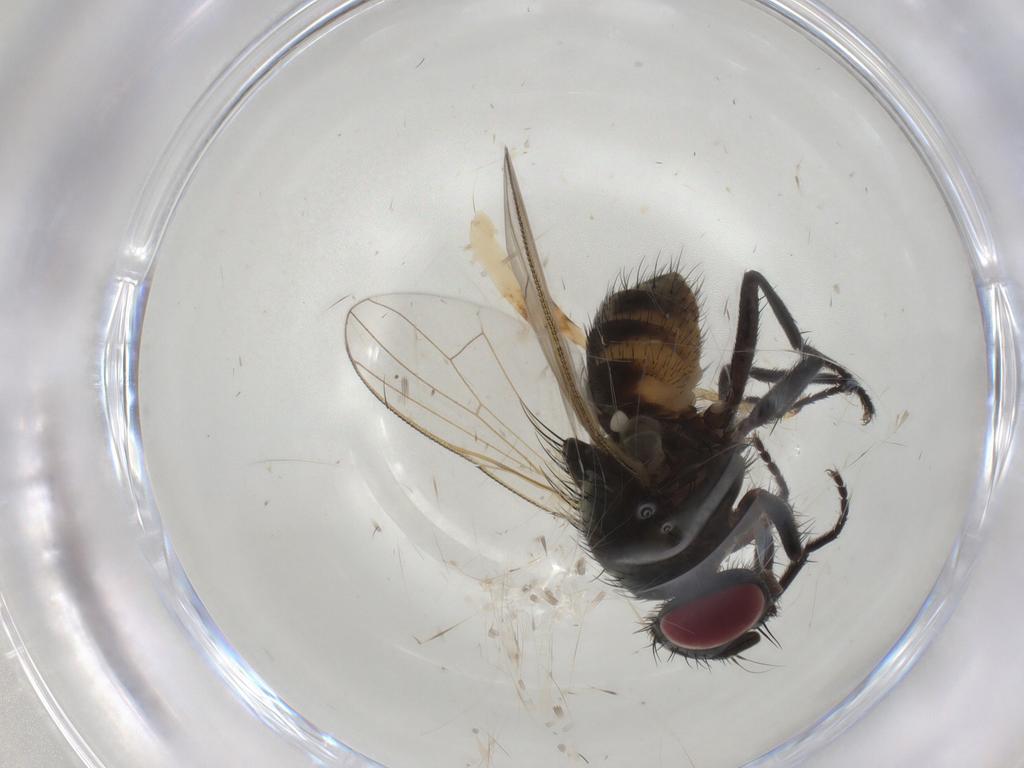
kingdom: Animalia
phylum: Arthropoda
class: Insecta
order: Diptera
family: Muscidae
